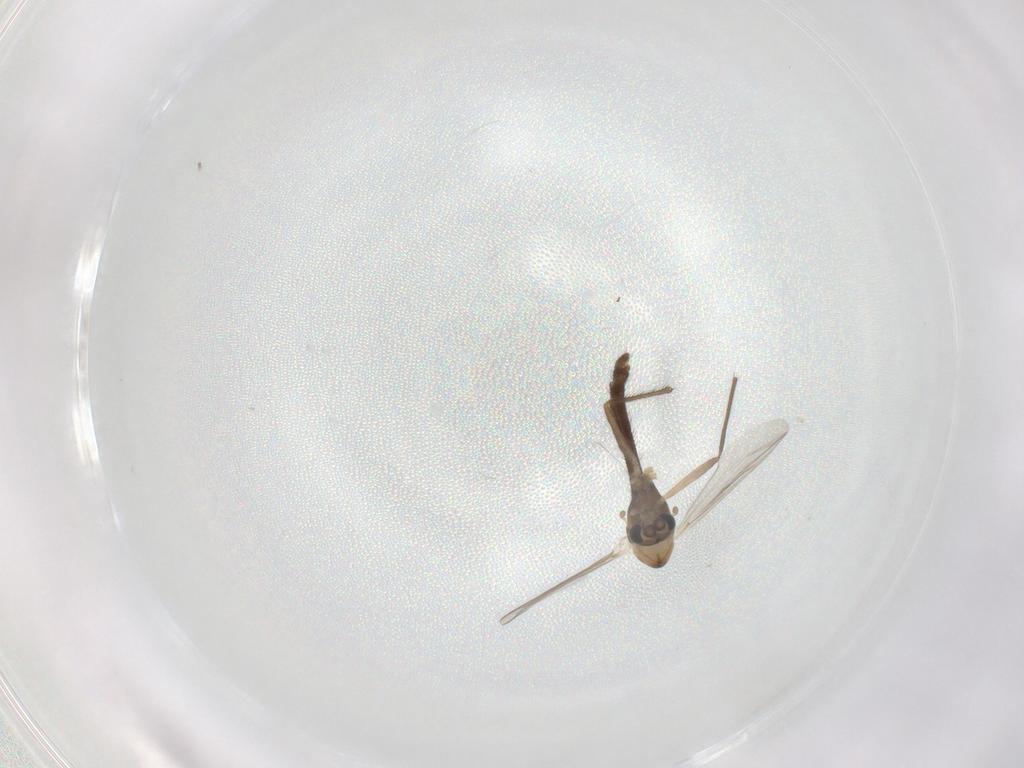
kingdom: Animalia
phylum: Arthropoda
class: Insecta
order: Diptera
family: Chironomidae
